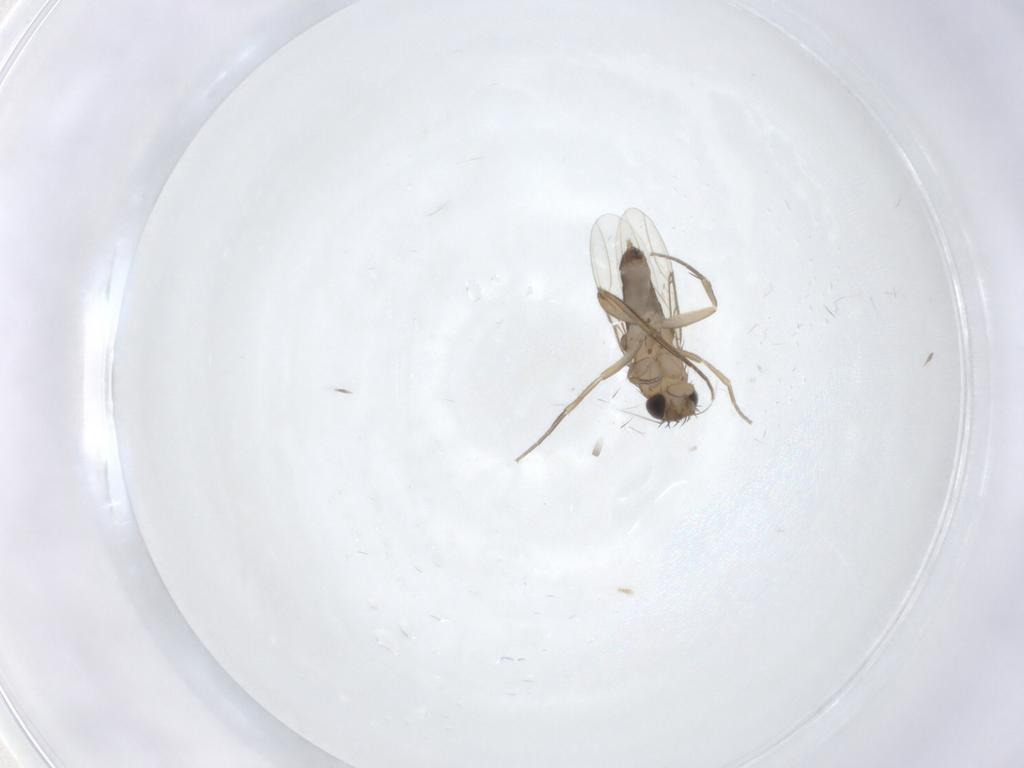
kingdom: Animalia
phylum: Arthropoda
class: Insecta
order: Diptera
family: Phoridae
